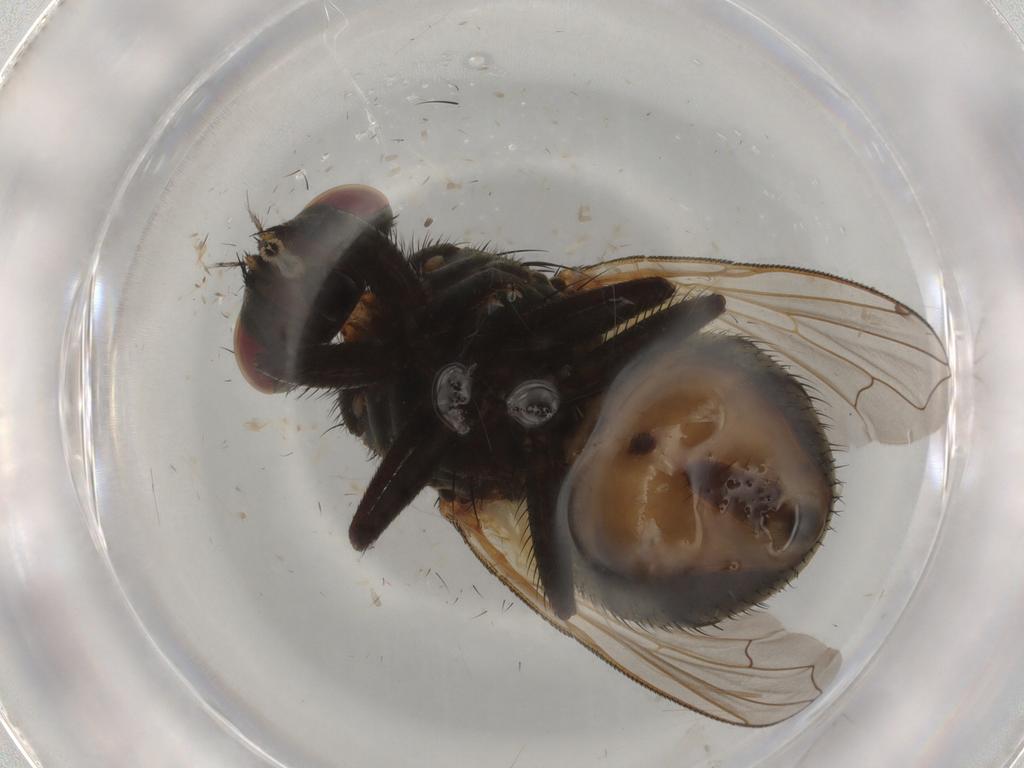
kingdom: Animalia
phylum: Arthropoda
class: Insecta
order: Diptera
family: Muscidae
